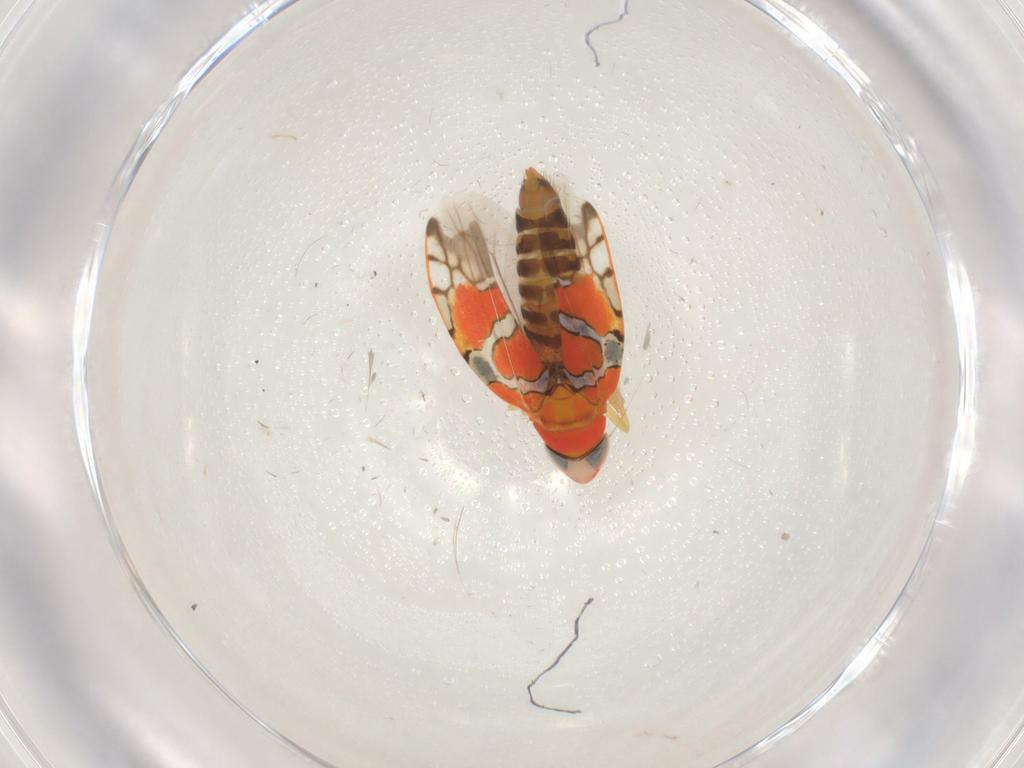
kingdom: Animalia
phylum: Arthropoda
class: Insecta
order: Hemiptera
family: Cicadellidae
